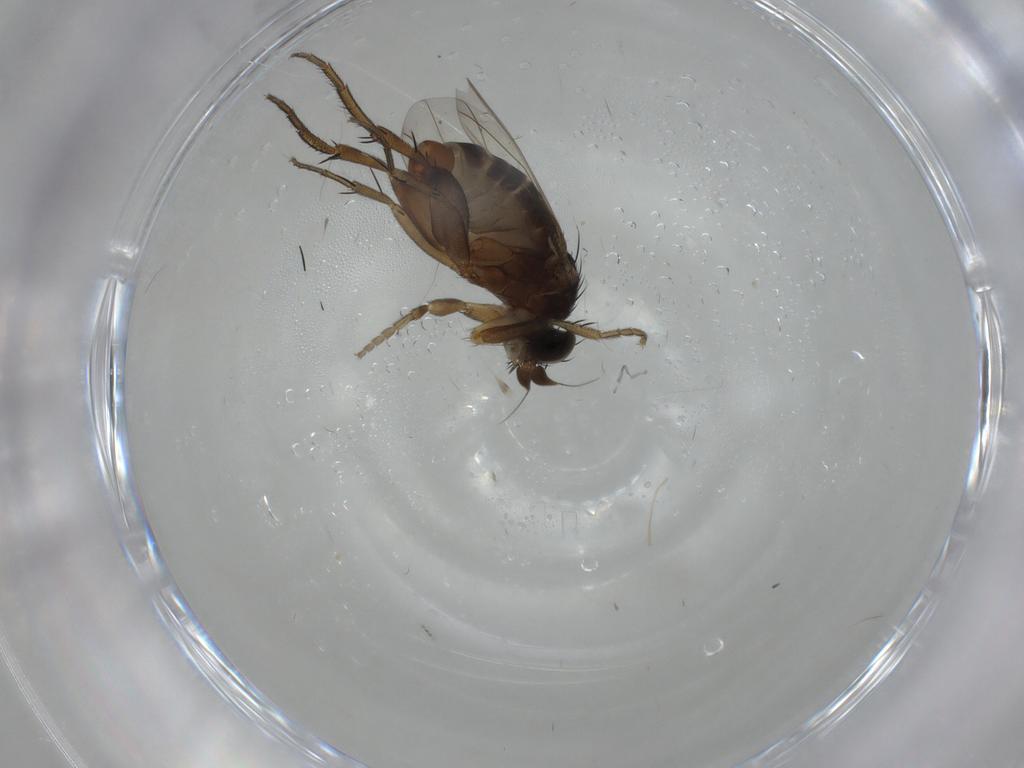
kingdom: Animalia
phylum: Arthropoda
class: Insecta
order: Diptera
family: Phoridae
